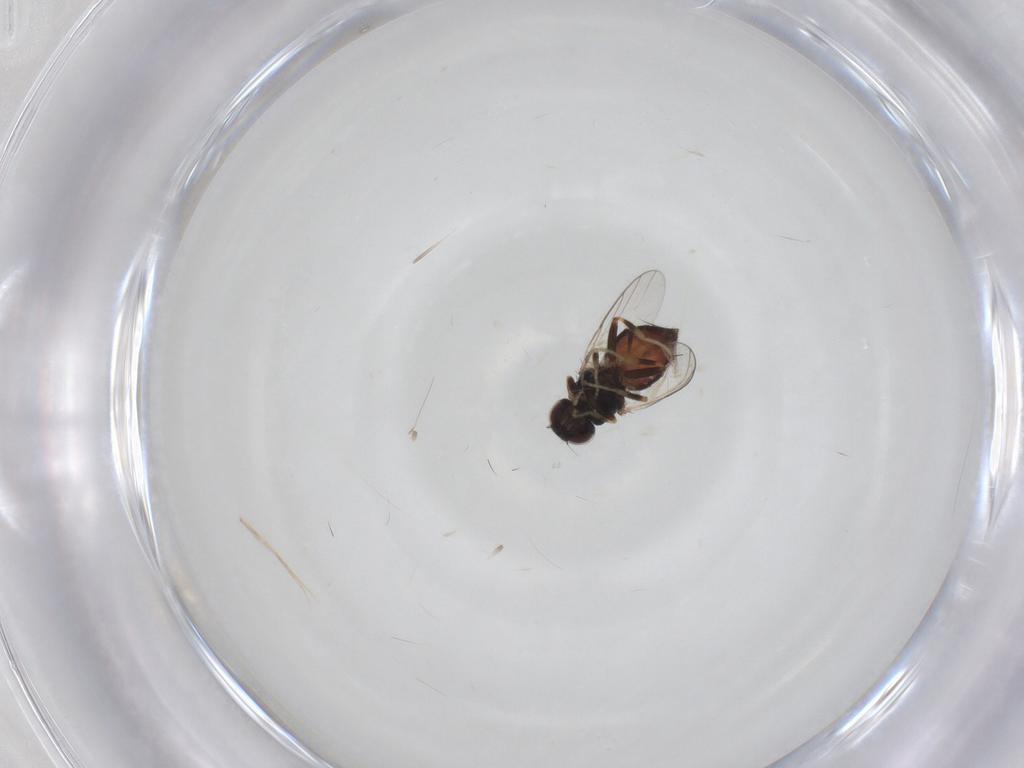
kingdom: Animalia
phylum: Arthropoda
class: Insecta
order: Diptera
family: Chloropidae
